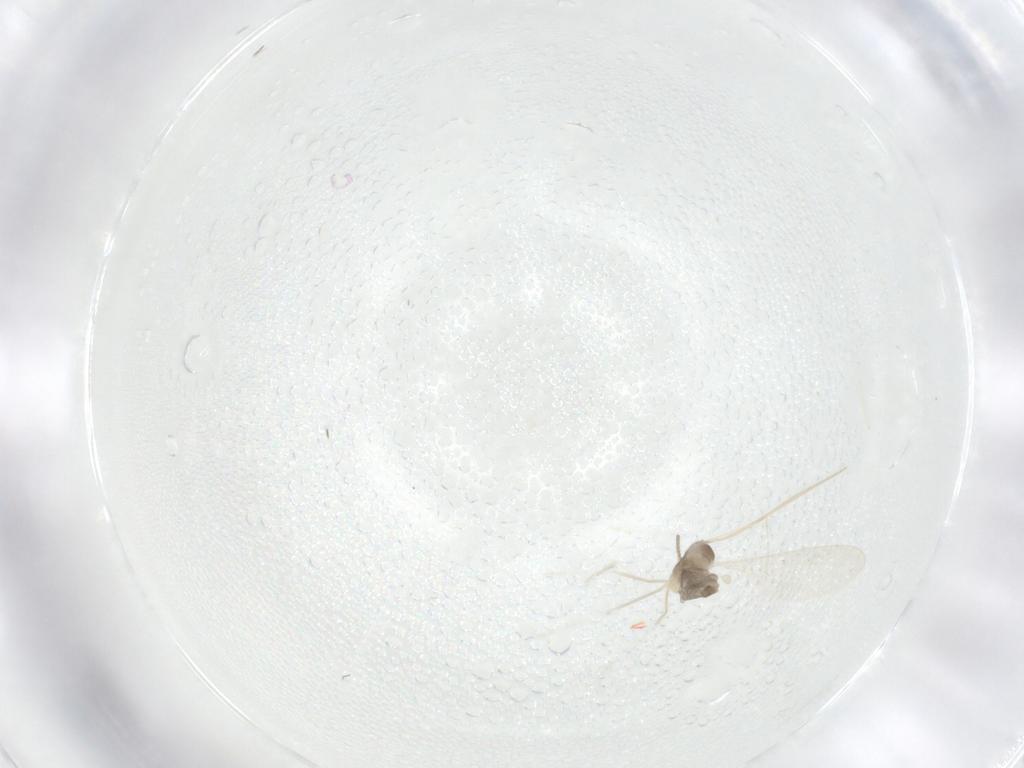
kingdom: Animalia
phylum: Arthropoda
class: Insecta
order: Diptera
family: Cecidomyiidae
